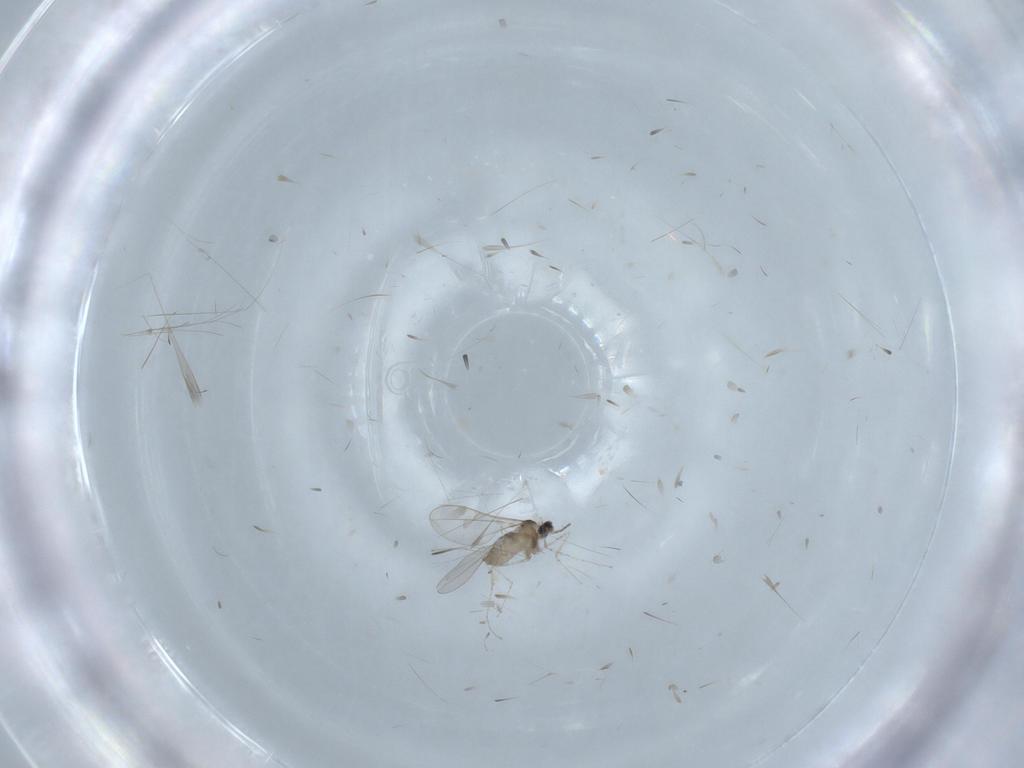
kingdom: Animalia
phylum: Arthropoda
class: Insecta
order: Diptera
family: Cecidomyiidae
